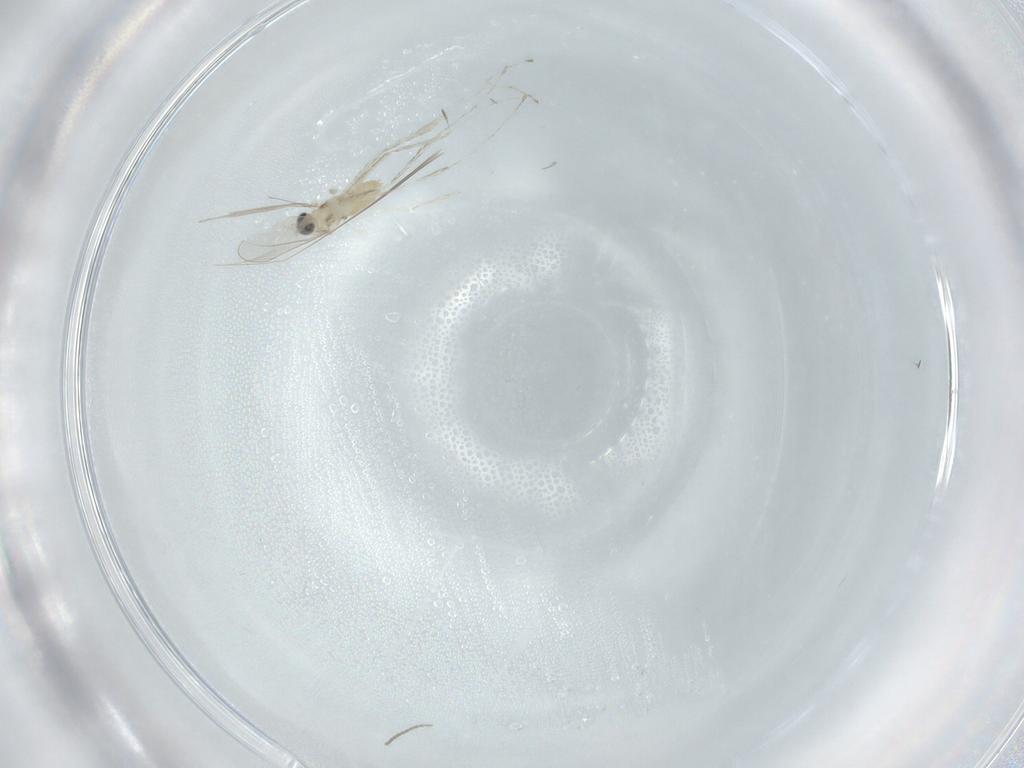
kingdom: Animalia
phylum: Arthropoda
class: Insecta
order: Diptera
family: Cecidomyiidae
